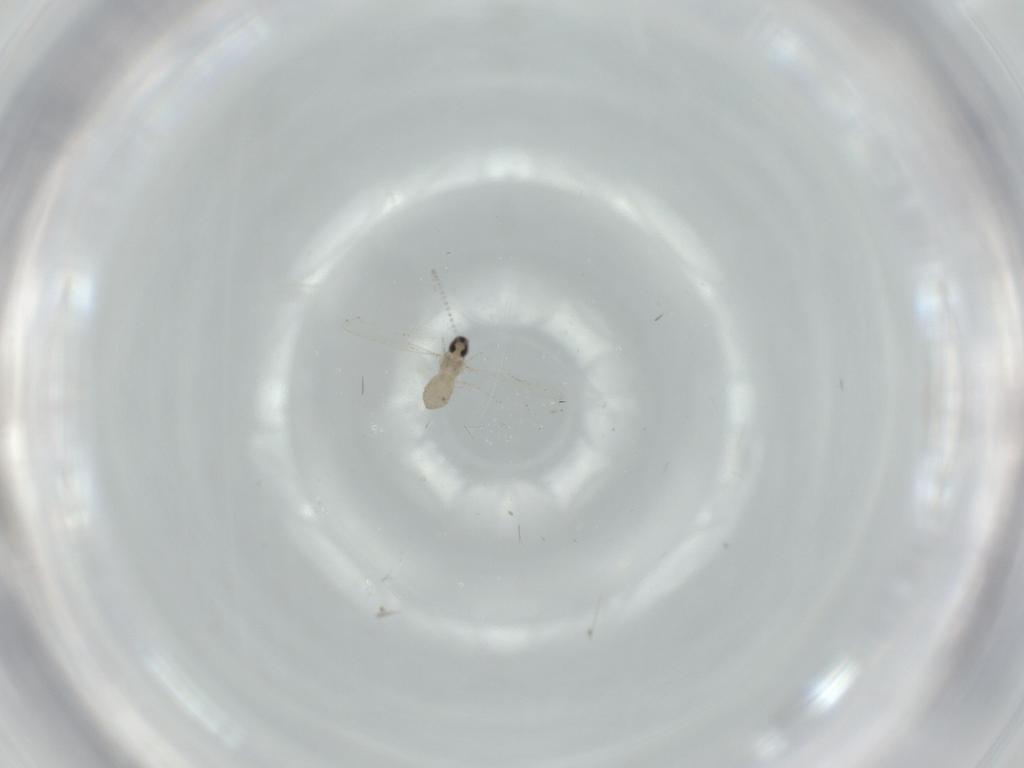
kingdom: Animalia
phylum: Arthropoda
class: Insecta
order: Diptera
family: Cecidomyiidae
